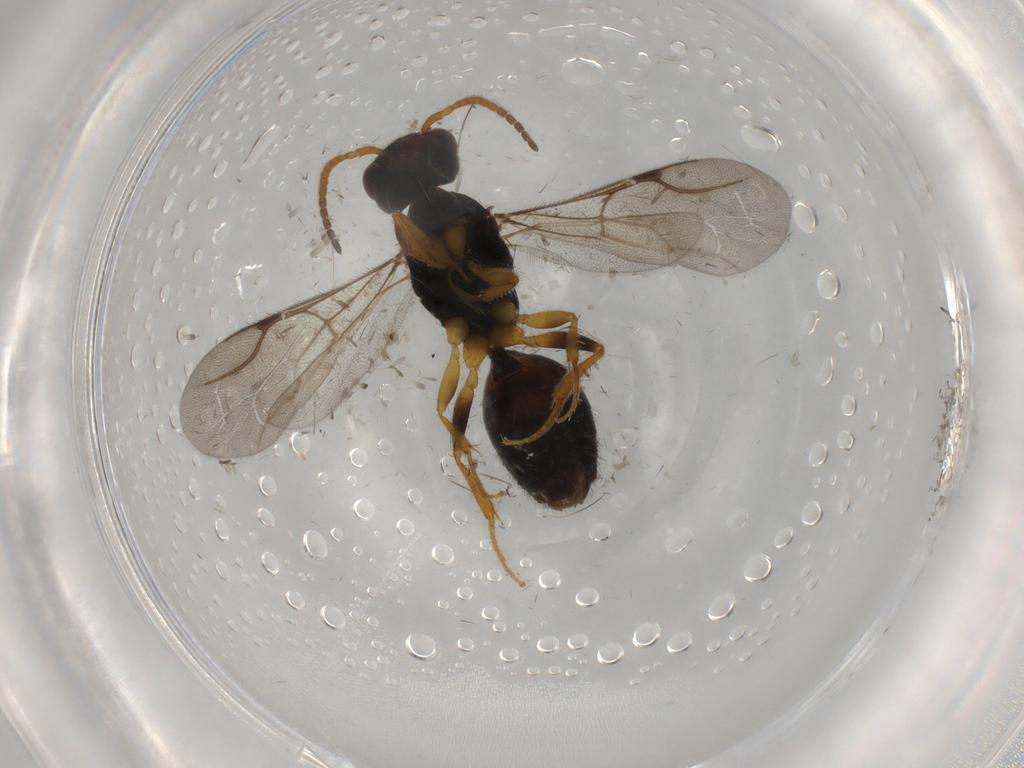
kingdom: Animalia
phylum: Arthropoda
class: Insecta
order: Hymenoptera
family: Bethylidae
